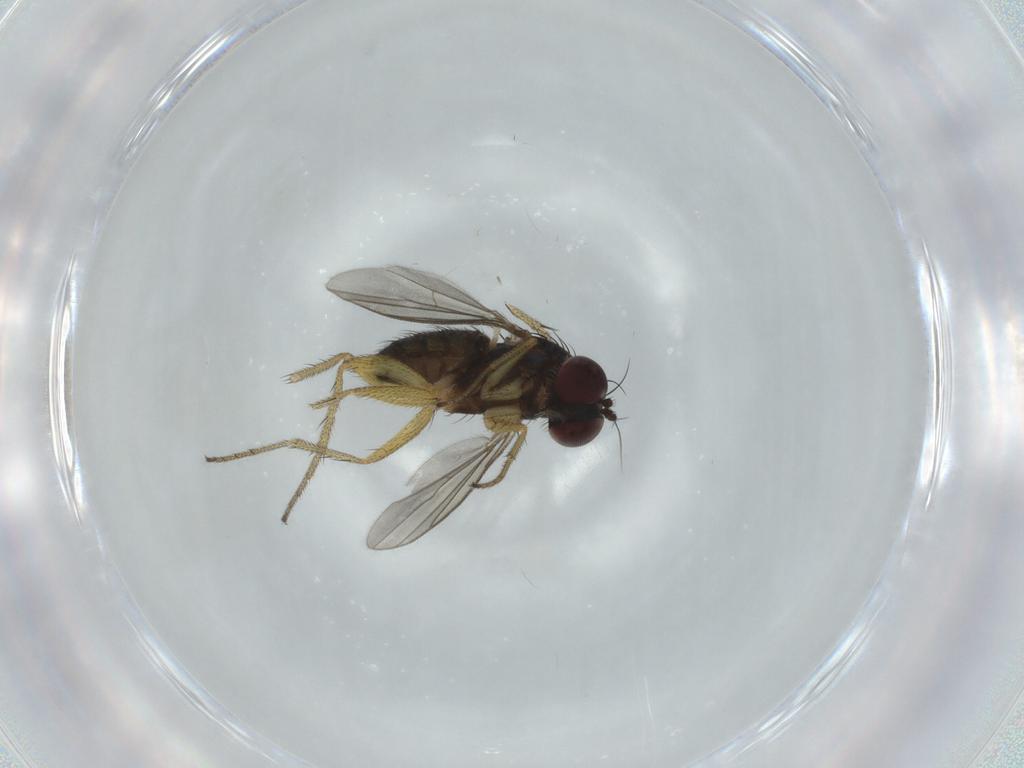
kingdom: Animalia
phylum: Arthropoda
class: Insecta
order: Diptera
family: Dolichopodidae
